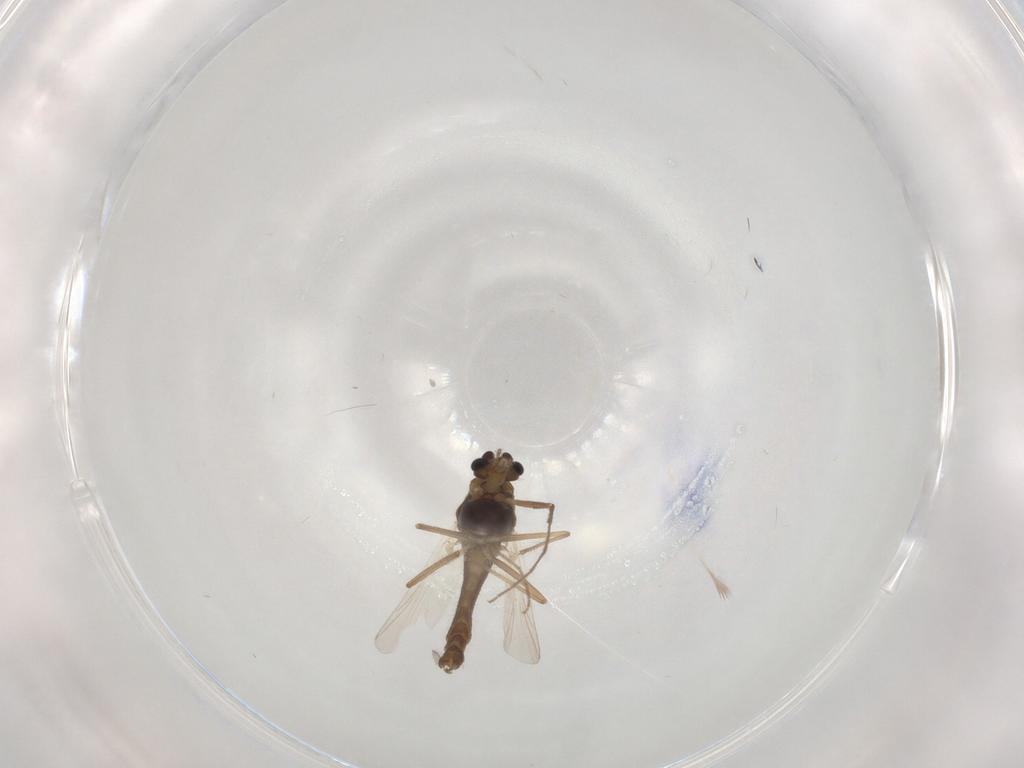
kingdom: Animalia
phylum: Arthropoda
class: Insecta
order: Diptera
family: Chironomidae
